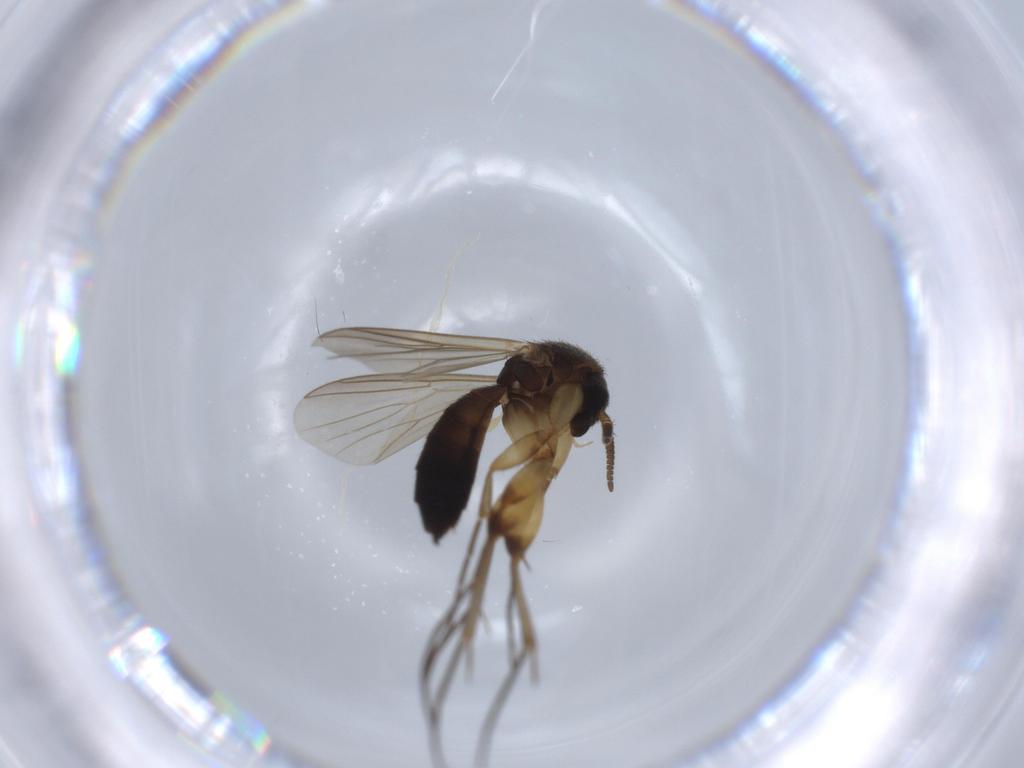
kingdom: Animalia
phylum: Arthropoda
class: Insecta
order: Diptera
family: Mycetophilidae
